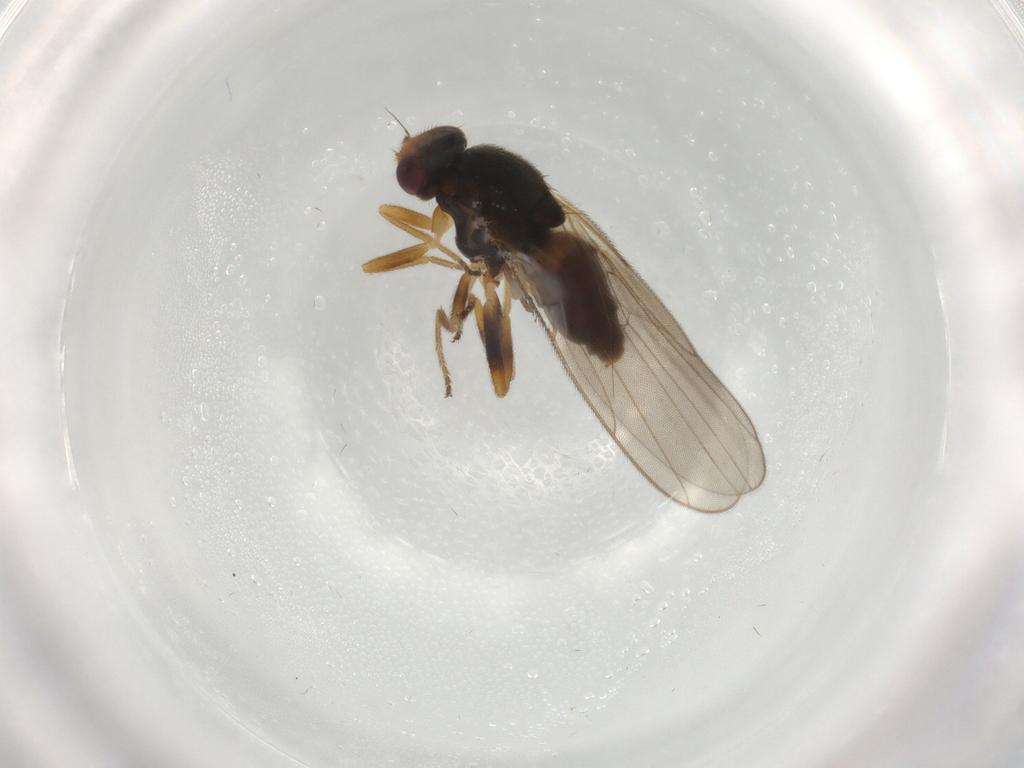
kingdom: Animalia
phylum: Arthropoda
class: Insecta
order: Diptera
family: Chloropidae
